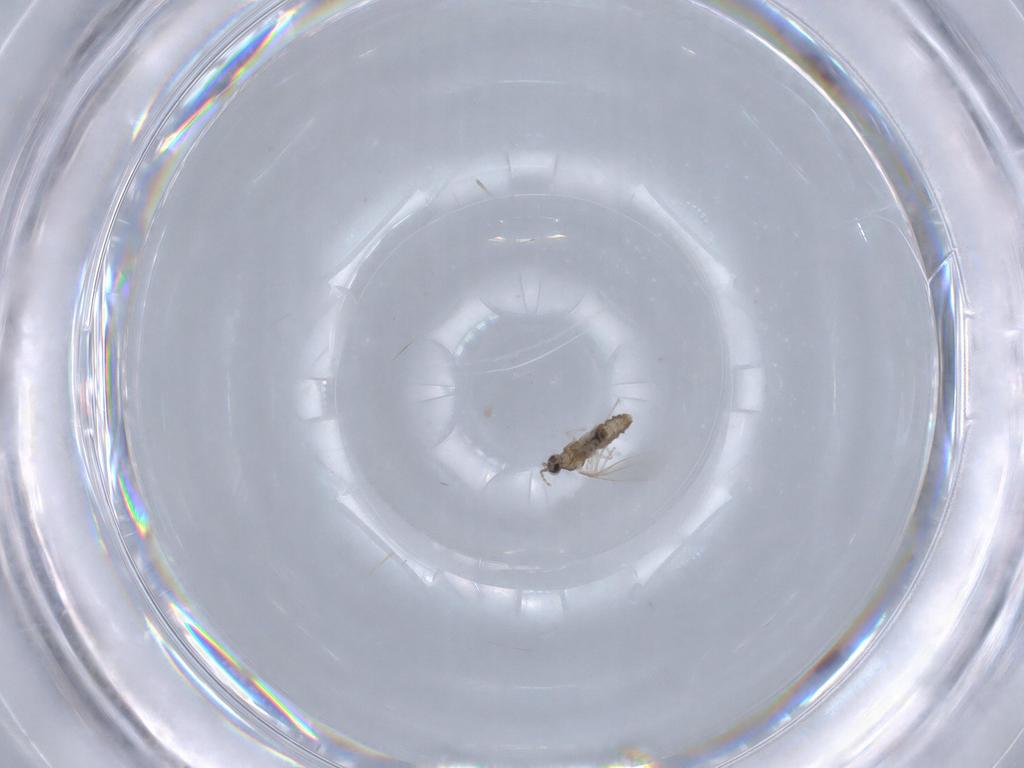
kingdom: Animalia
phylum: Arthropoda
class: Insecta
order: Diptera
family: Cecidomyiidae
